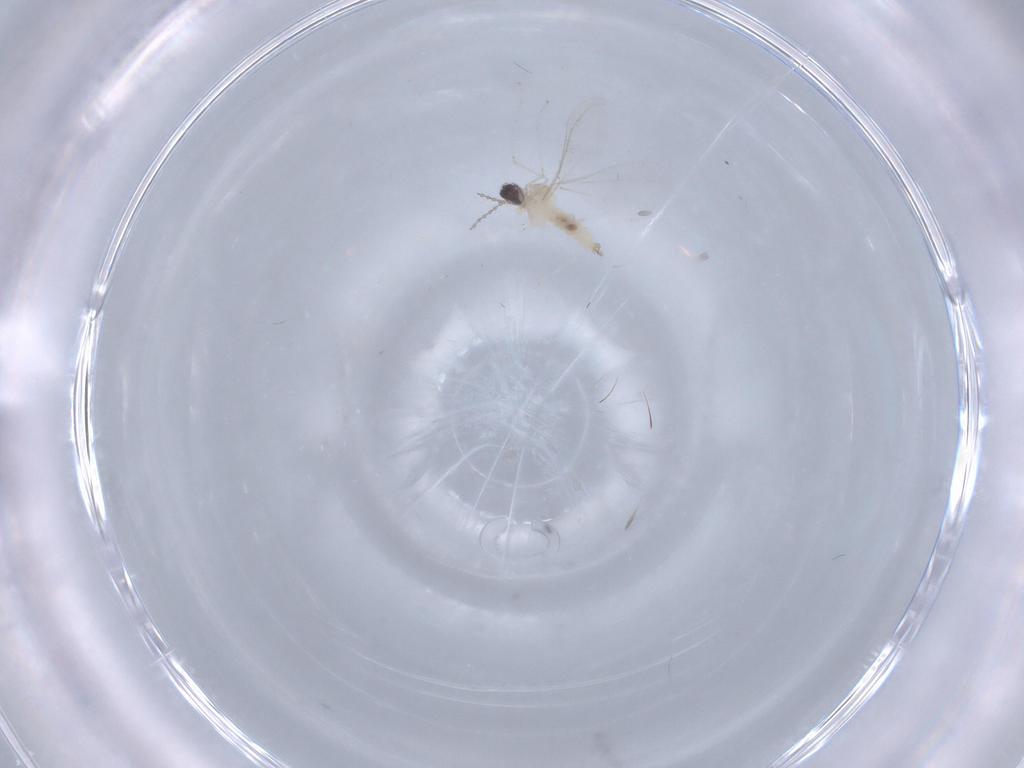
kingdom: Animalia
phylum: Arthropoda
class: Insecta
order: Diptera
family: Cecidomyiidae
